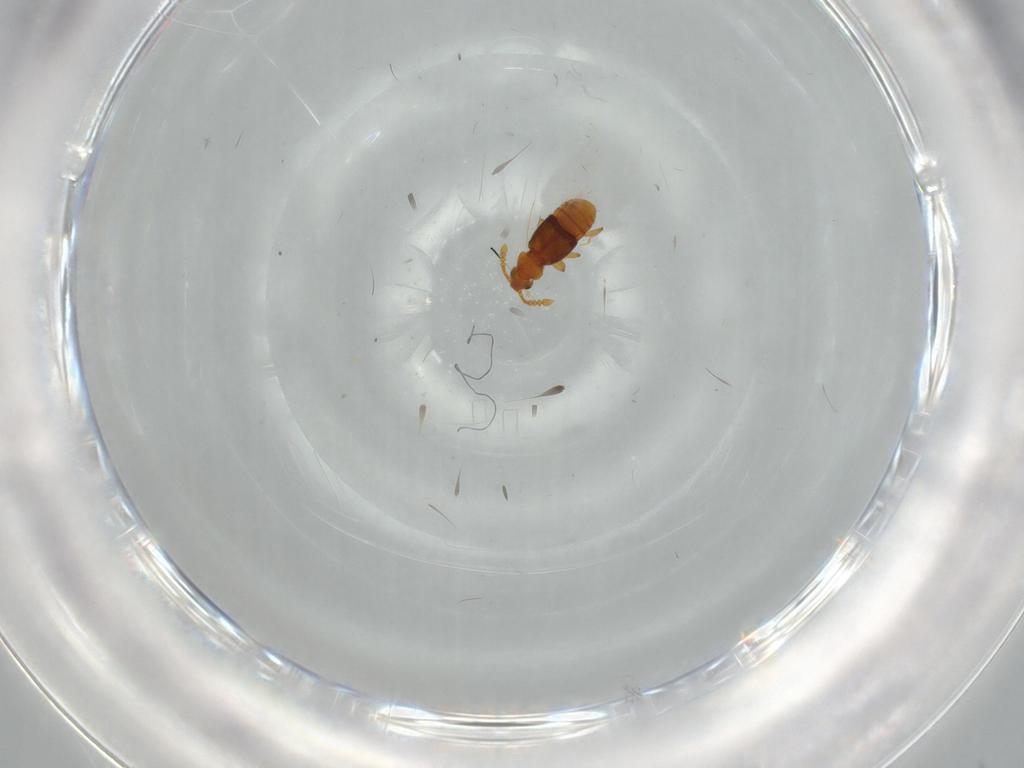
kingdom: Animalia
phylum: Arthropoda
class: Insecta
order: Coleoptera
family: Staphylinidae
